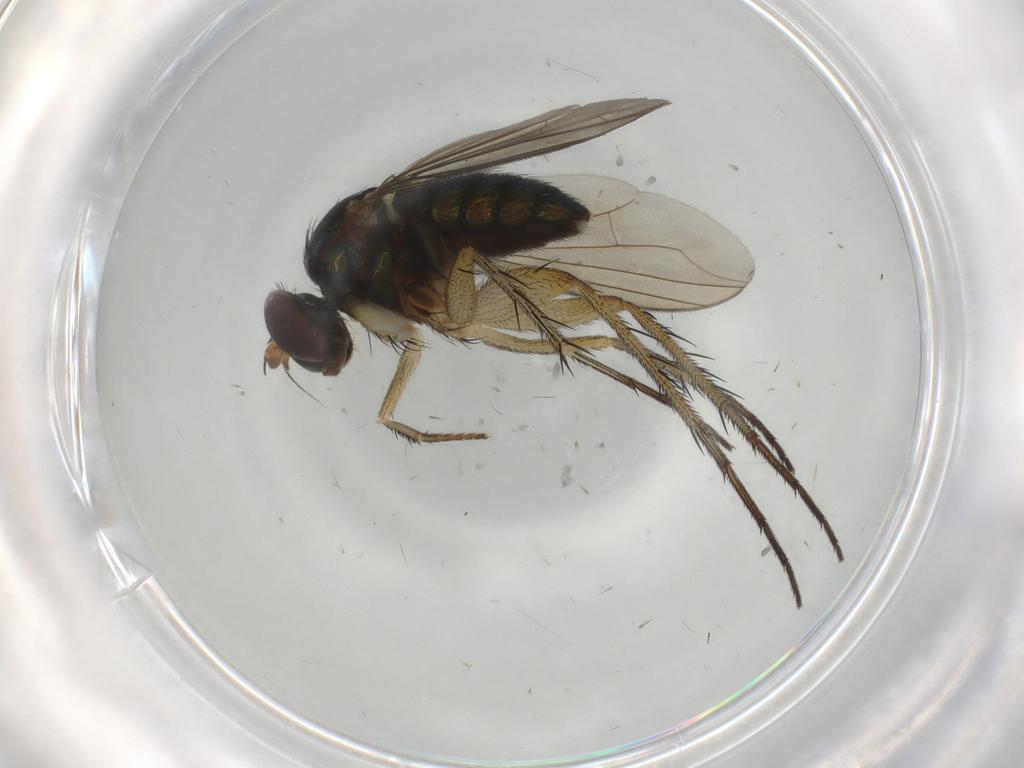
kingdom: Animalia
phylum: Arthropoda
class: Insecta
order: Diptera
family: Dolichopodidae
